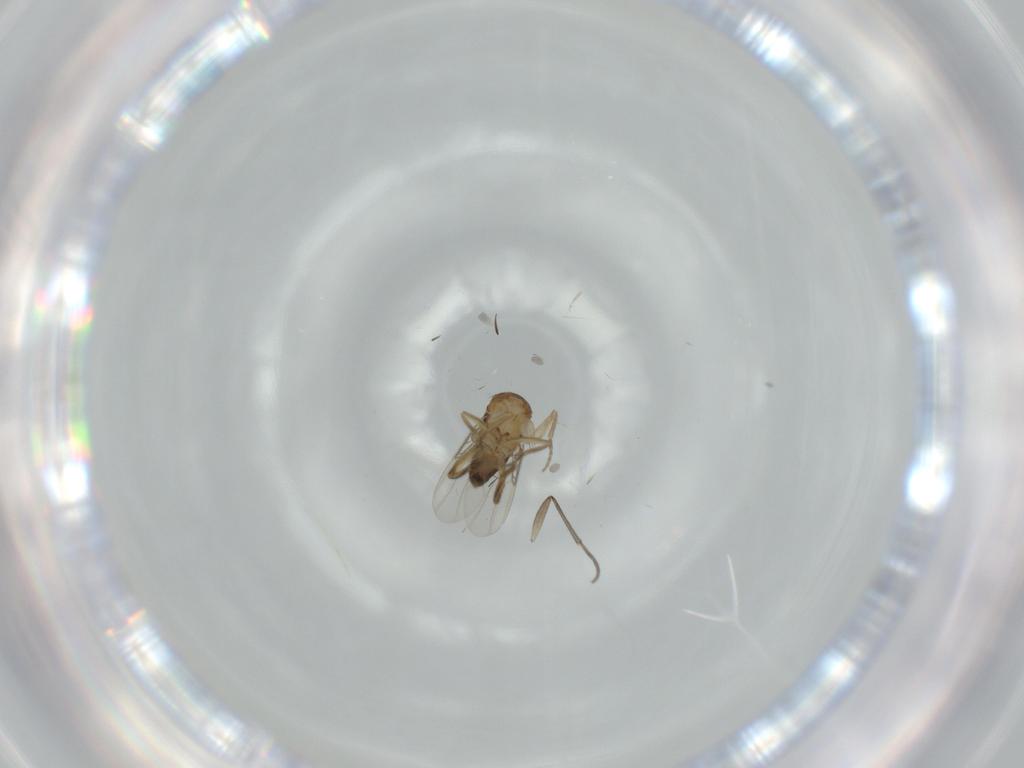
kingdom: Animalia
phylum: Arthropoda
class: Insecta
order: Diptera
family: Phoridae
